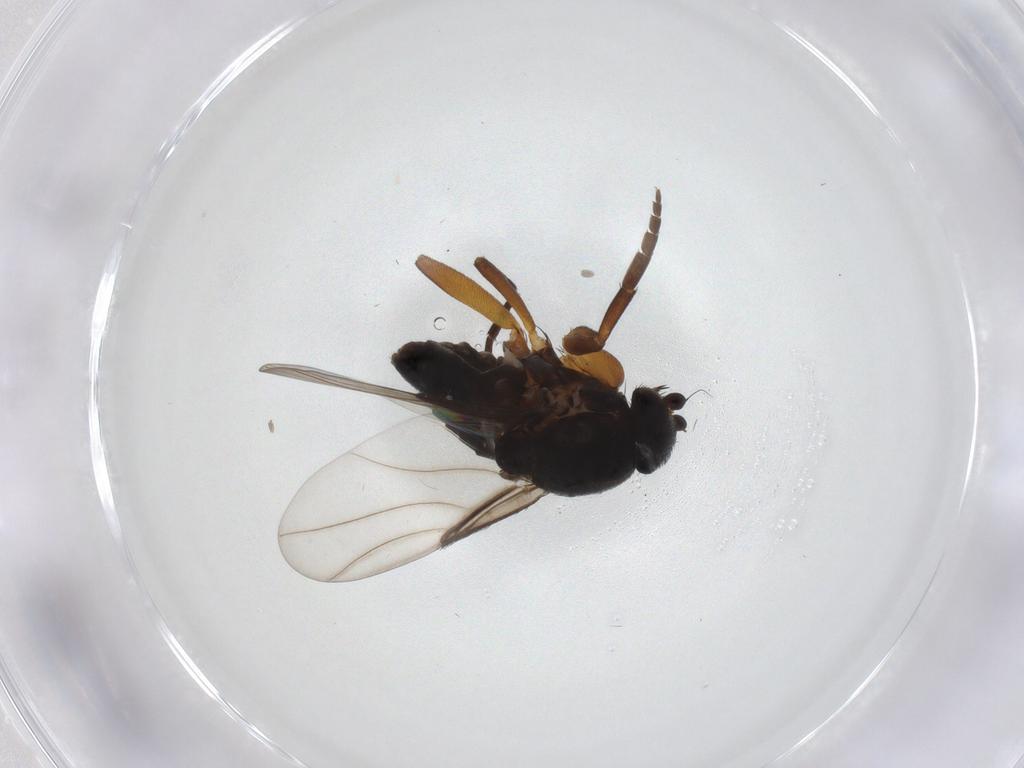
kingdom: Animalia
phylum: Arthropoda
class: Insecta
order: Diptera
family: Phoridae
